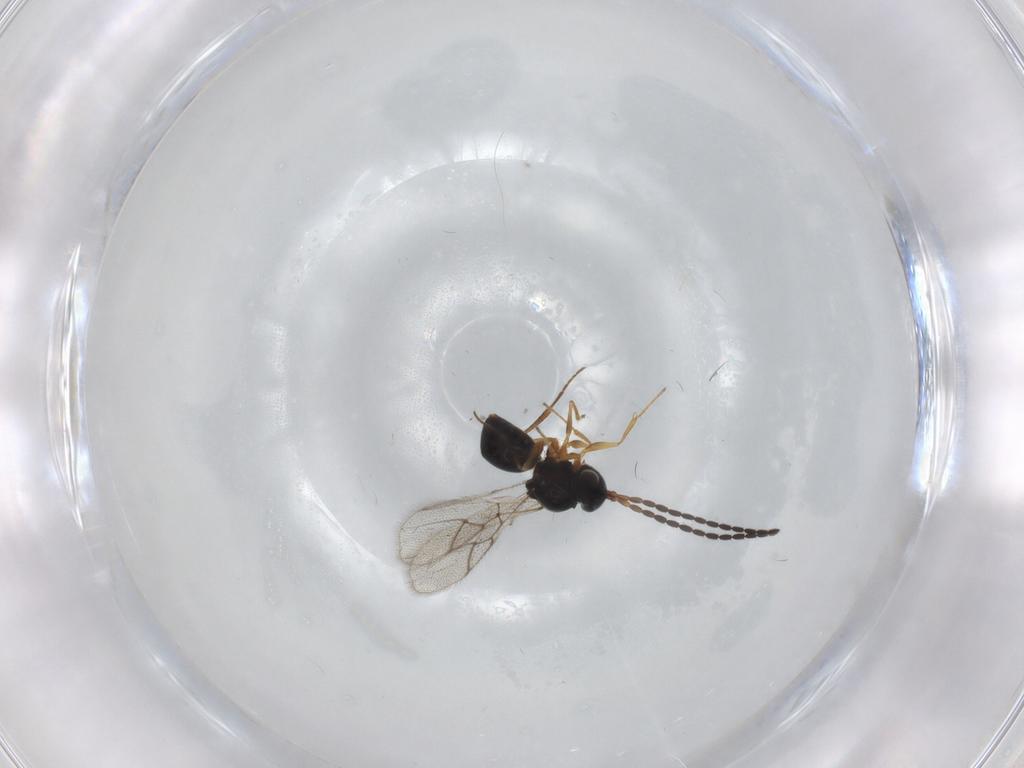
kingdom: Animalia
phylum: Arthropoda
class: Insecta
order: Hymenoptera
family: Figitidae
